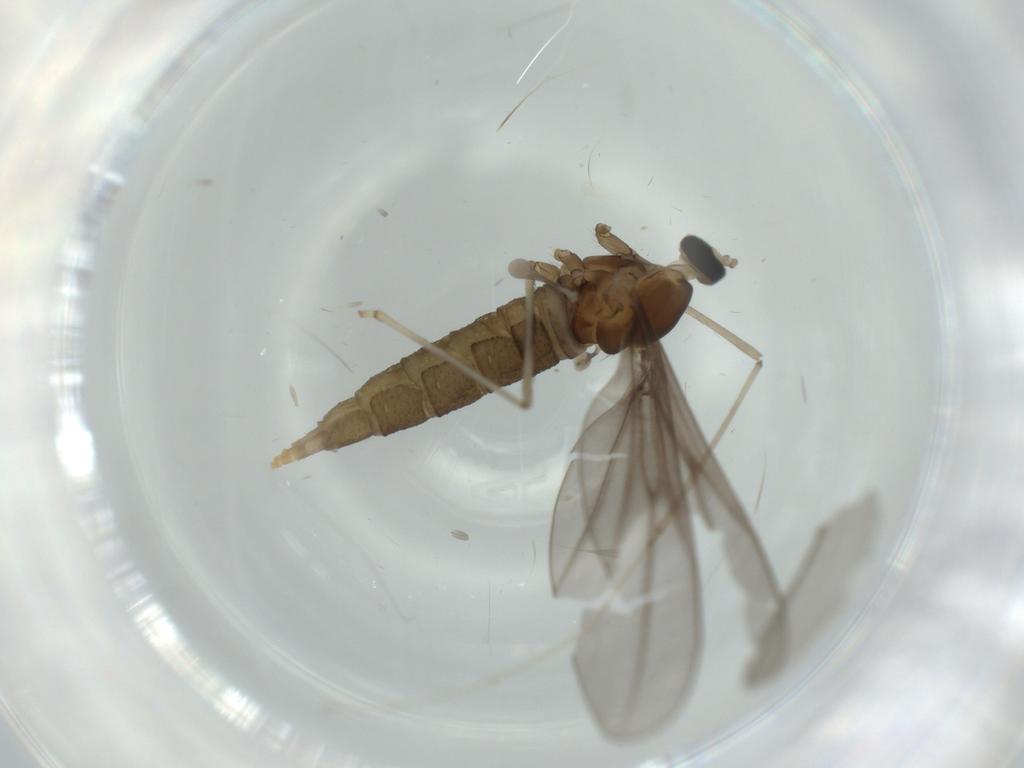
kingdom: Animalia
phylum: Arthropoda
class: Insecta
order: Diptera
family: Cecidomyiidae
